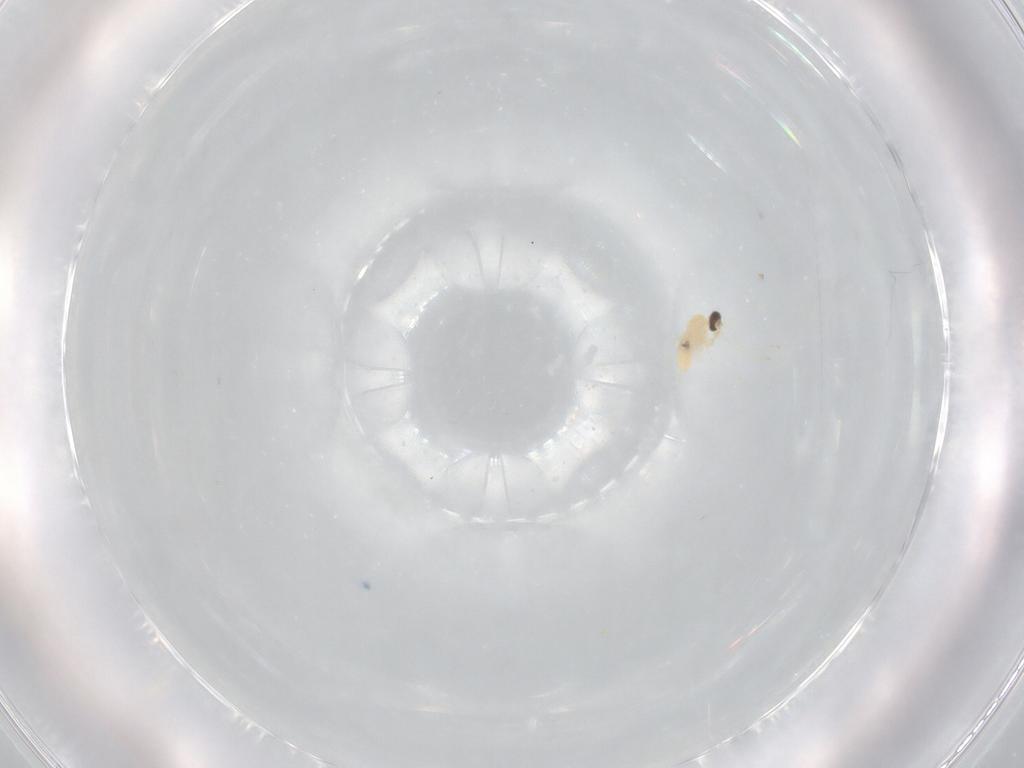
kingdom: Animalia
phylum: Arthropoda
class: Insecta
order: Diptera
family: Cecidomyiidae
